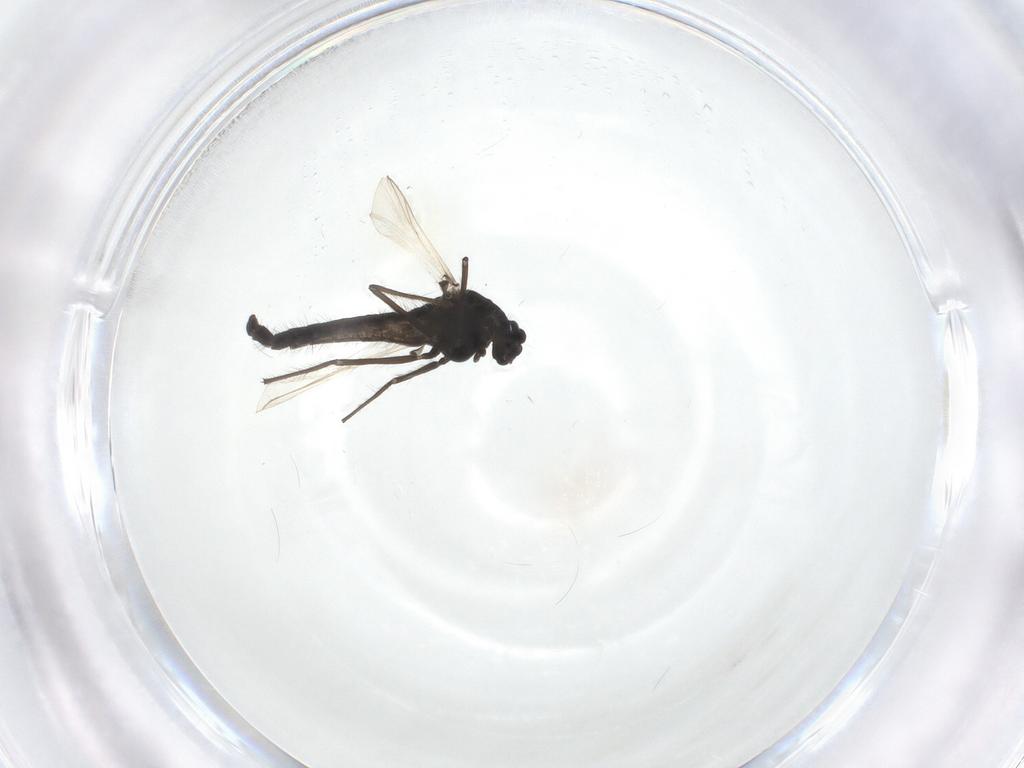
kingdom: Animalia
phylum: Arthropoda
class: Insecta
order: Diptera
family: Chironomidae
